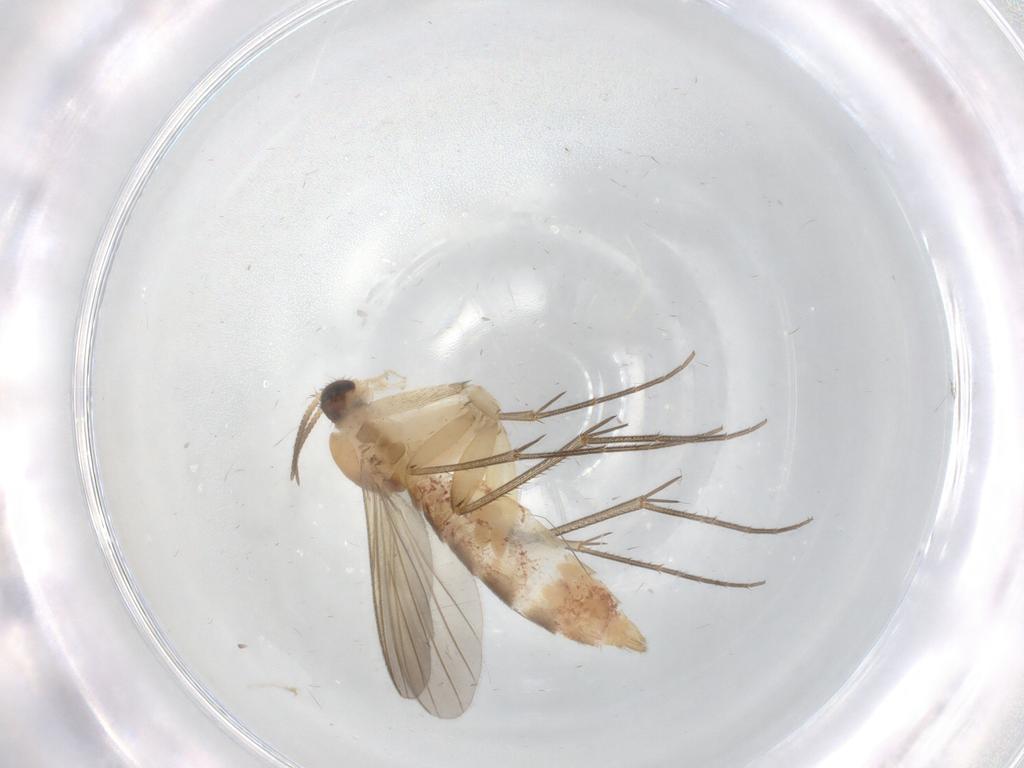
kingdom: Animalia
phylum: Arthropoda
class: Insecta
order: Diptera
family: Mycetophilidae
